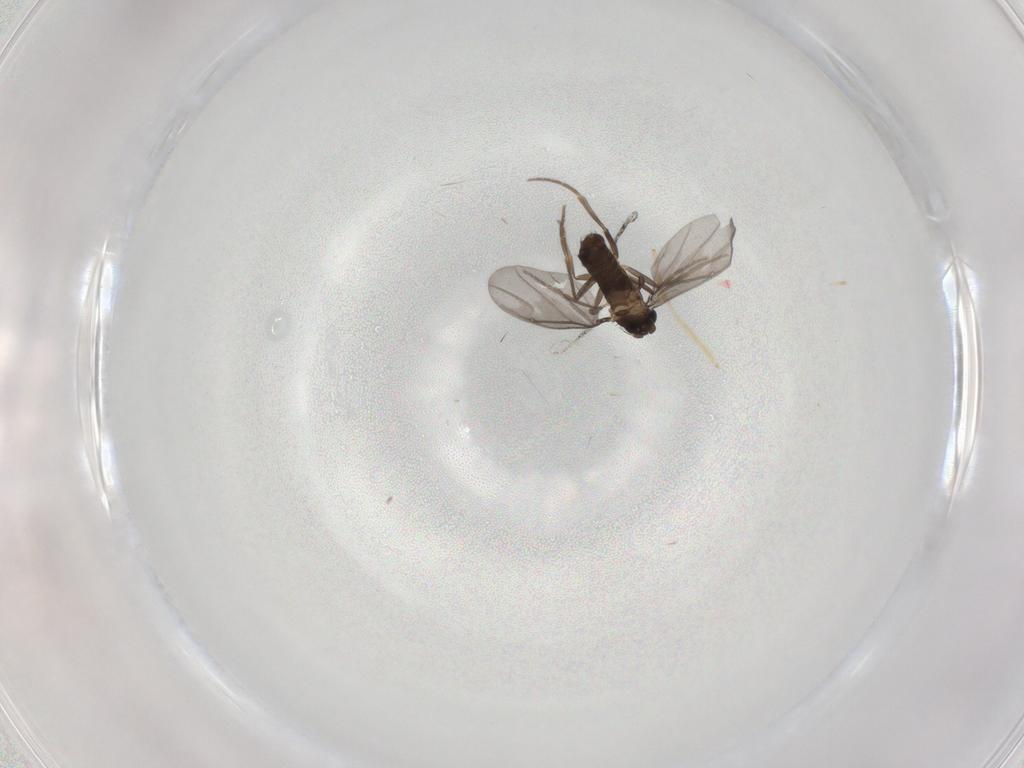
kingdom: Animalia
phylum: Arthropoda
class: Insecta
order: Diptera
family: Phoridae
